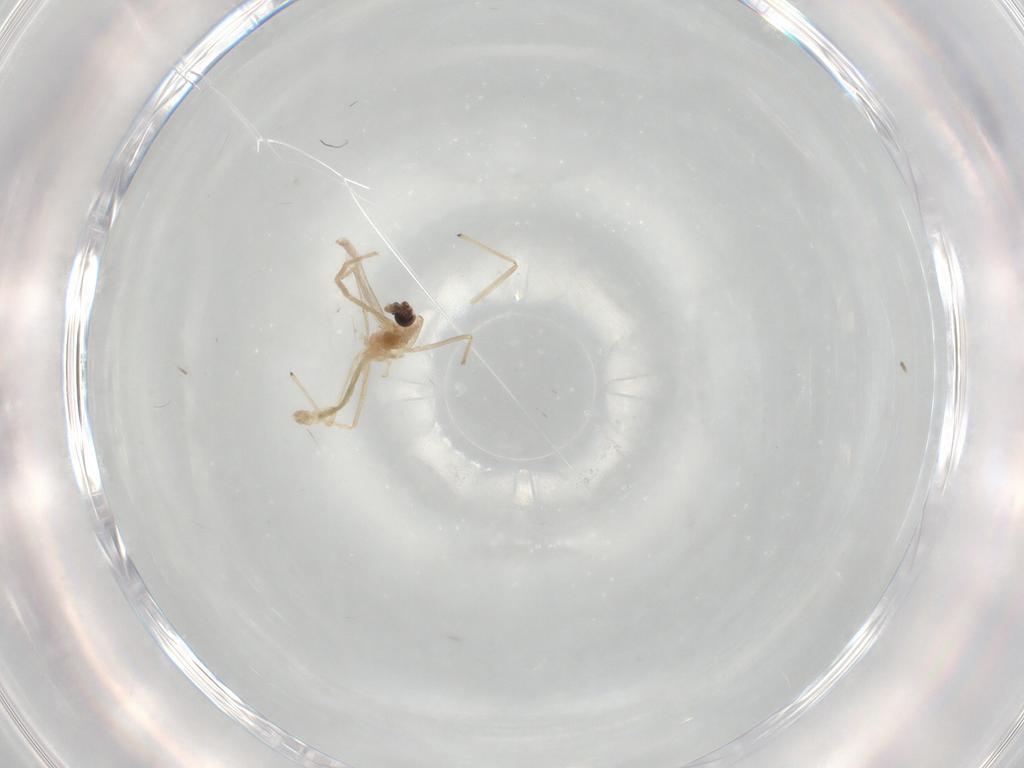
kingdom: Animalia
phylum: Arthropoda
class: Insecta
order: Diptera
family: Chironomidae
